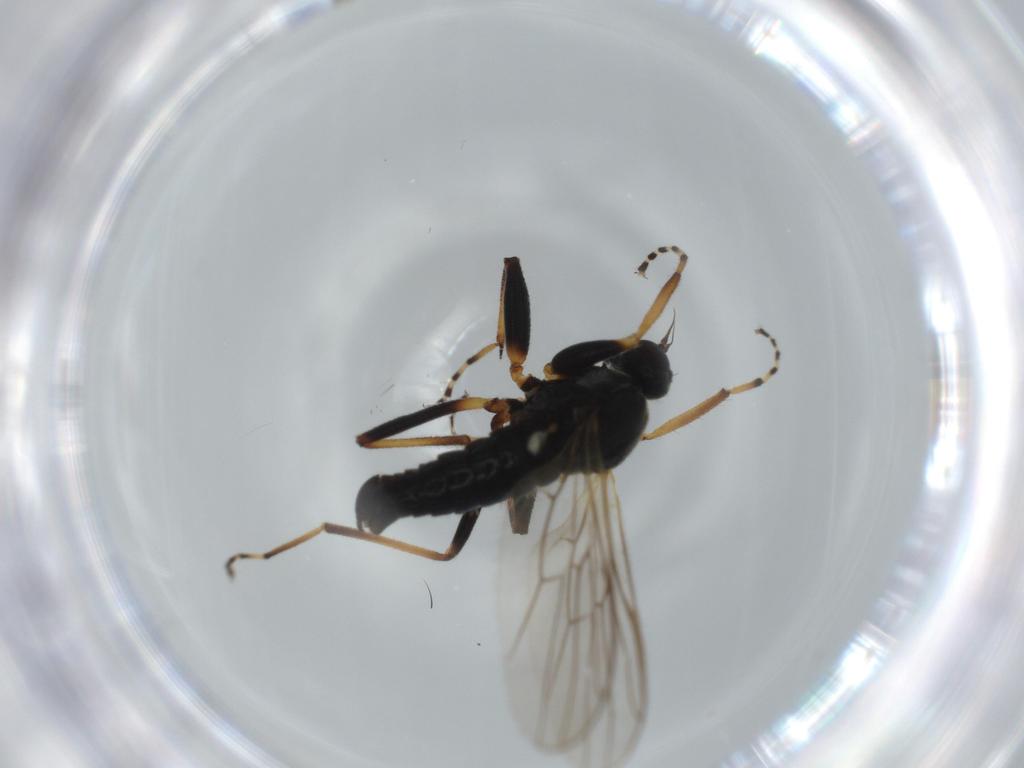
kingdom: Animalia
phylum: Arthropoda
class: Insecta
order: Diptera
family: Hybotidae
